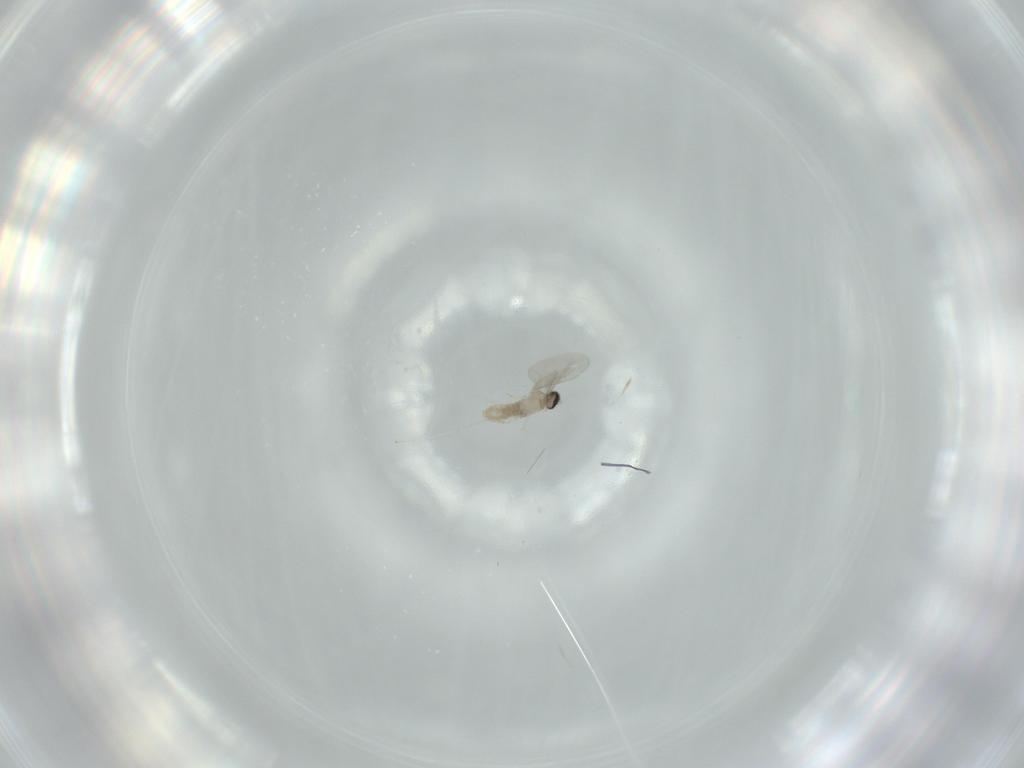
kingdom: Animalia
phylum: Arthropoda
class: Insecta
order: Diptera
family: Cecidomyiidae
